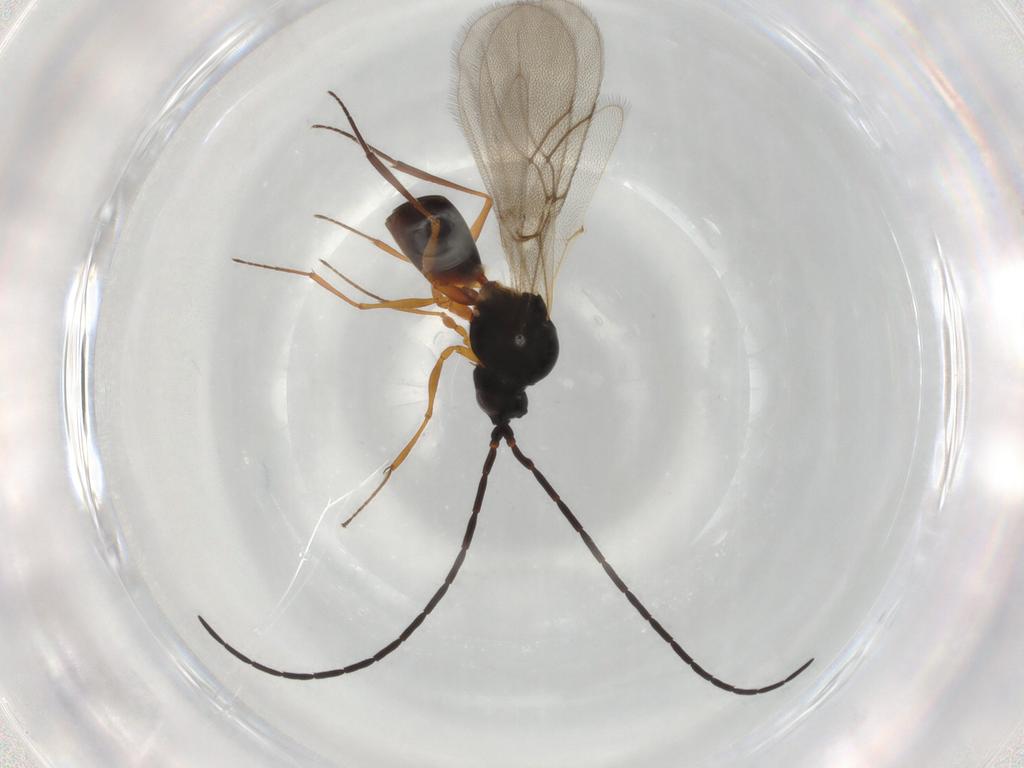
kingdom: Animalia
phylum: Arthropoda
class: Insecta
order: Hymenoptera
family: Figitidae
